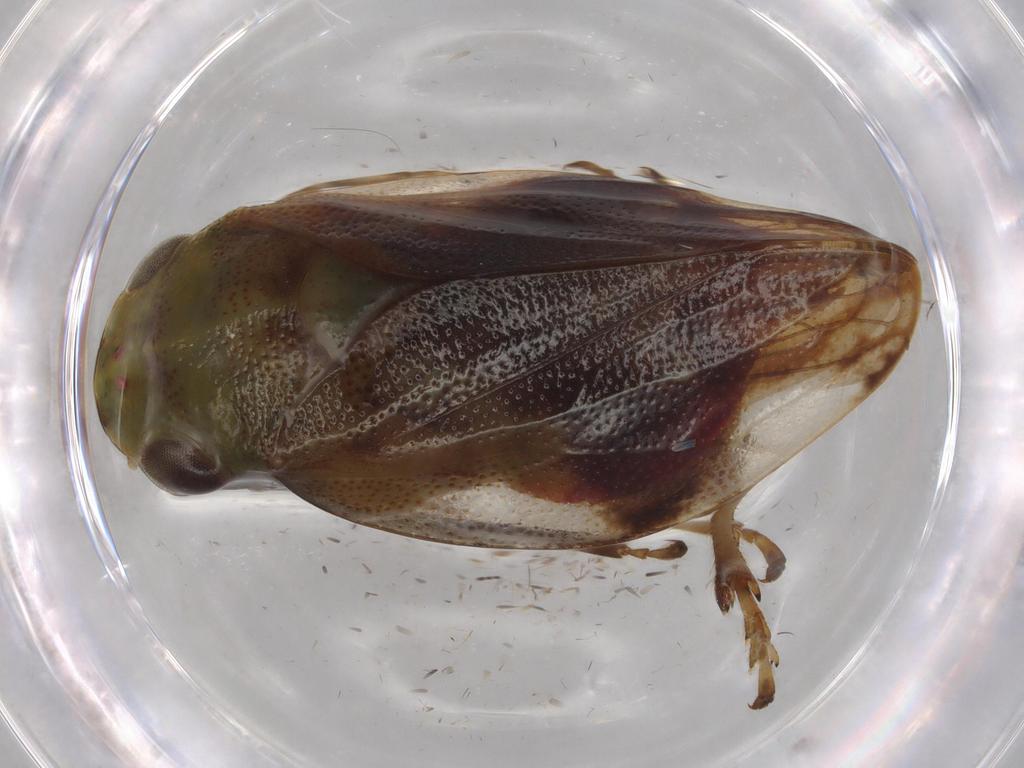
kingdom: Animalia
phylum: Arthropoda
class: Insecta
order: Hemiptera
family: Aphrophoridae
